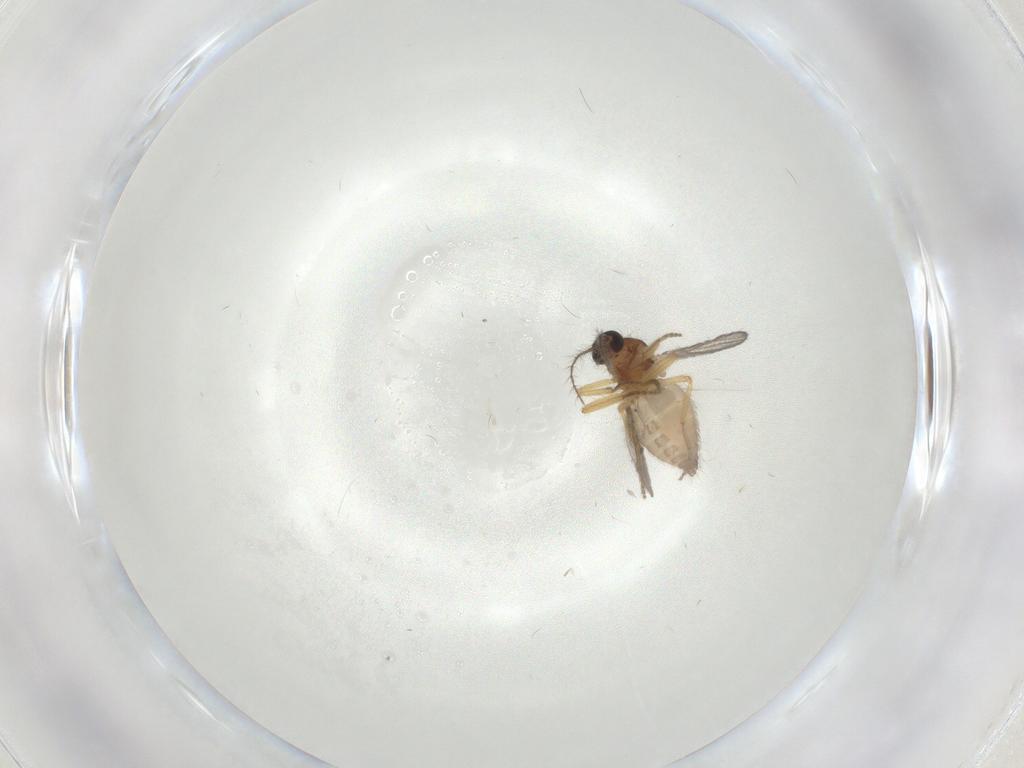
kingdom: Animalia
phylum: Arthropoda
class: Insecta
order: Diptera
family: Ceratopogonidae
